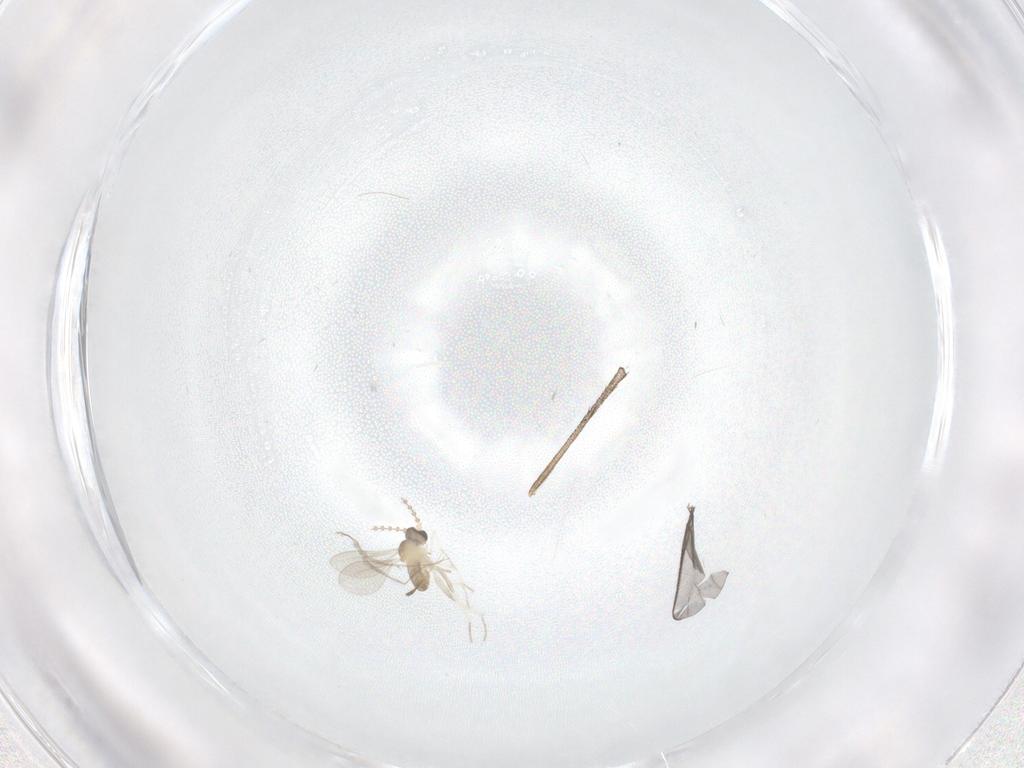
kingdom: Animalia
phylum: Arthropoda
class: Insecta
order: Diptera
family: Cecidomyiidae
